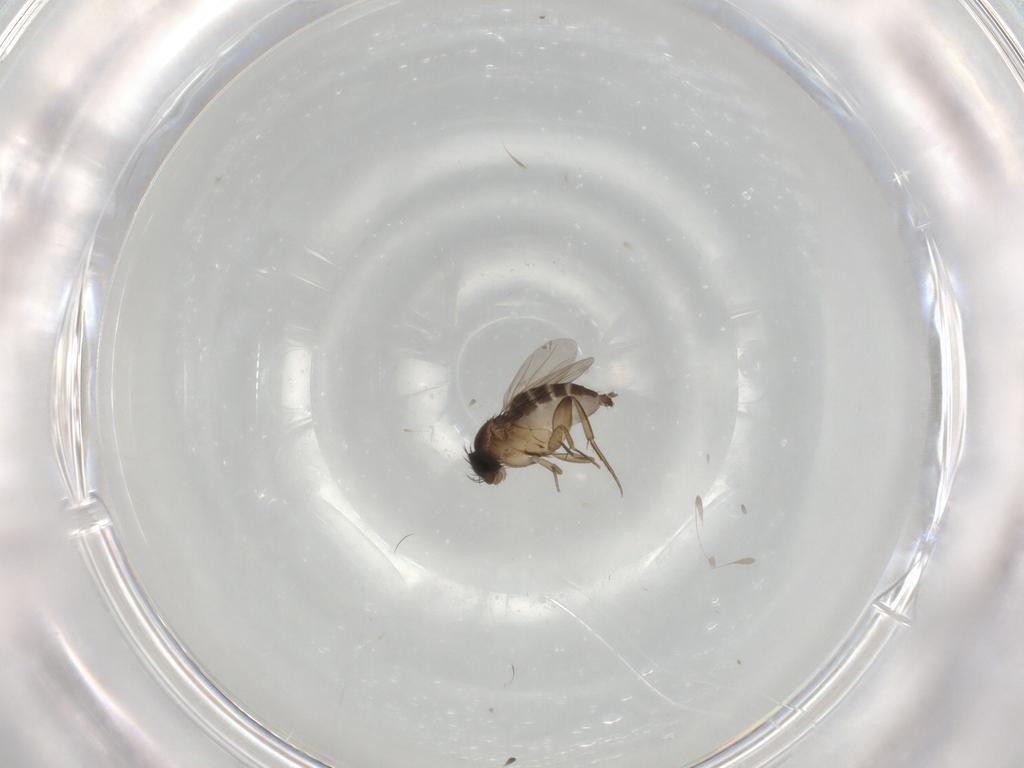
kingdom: Animalia
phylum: Arthropoda
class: Insecta
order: Diptera
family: Phoridae
